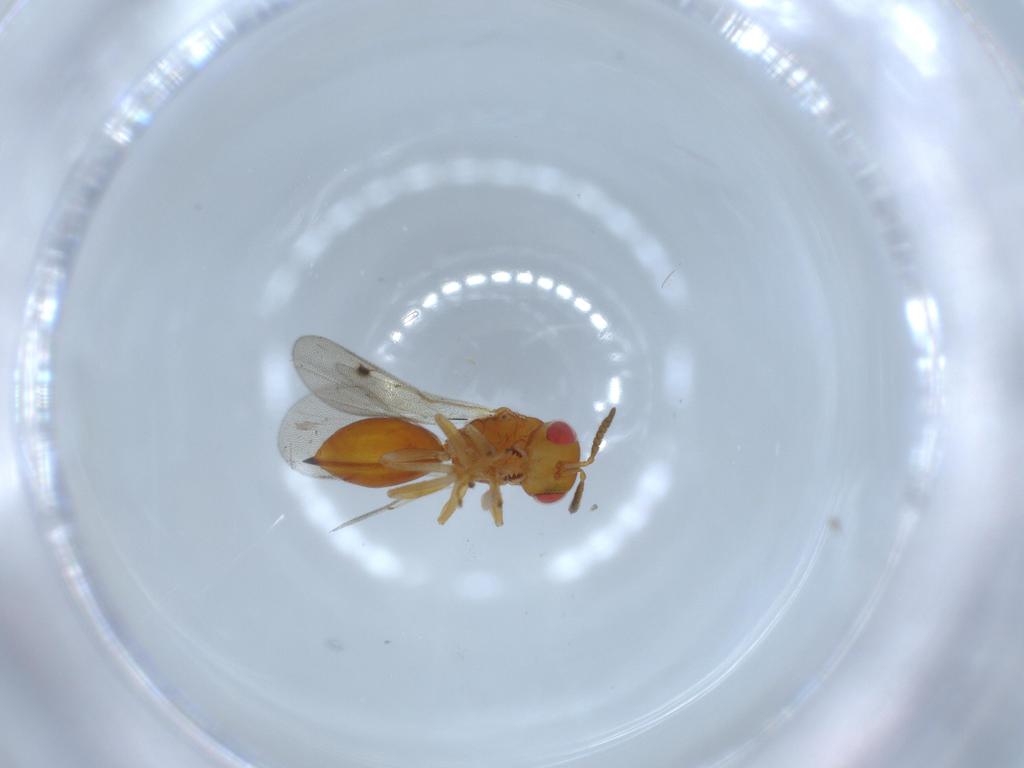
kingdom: Animalia
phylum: Arthropoda
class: Insecta
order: Hymenoptera
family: Eurytomidae
